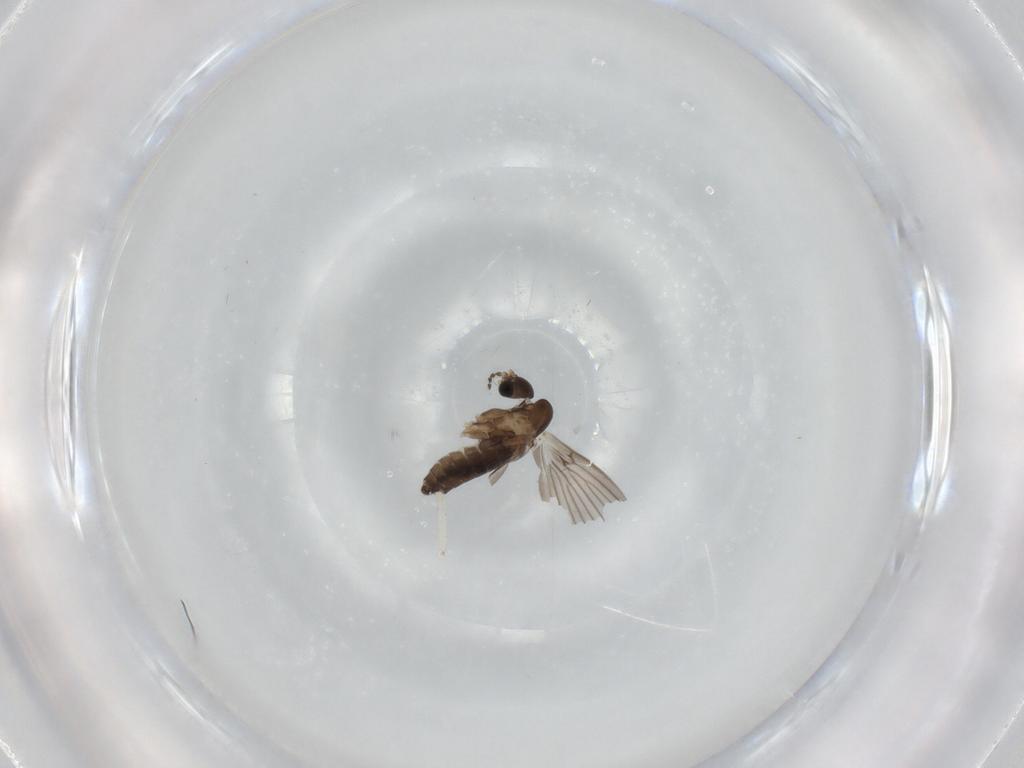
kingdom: Animalia
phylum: Arthropoda
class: Insecta
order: Diptera
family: Chironomidae
